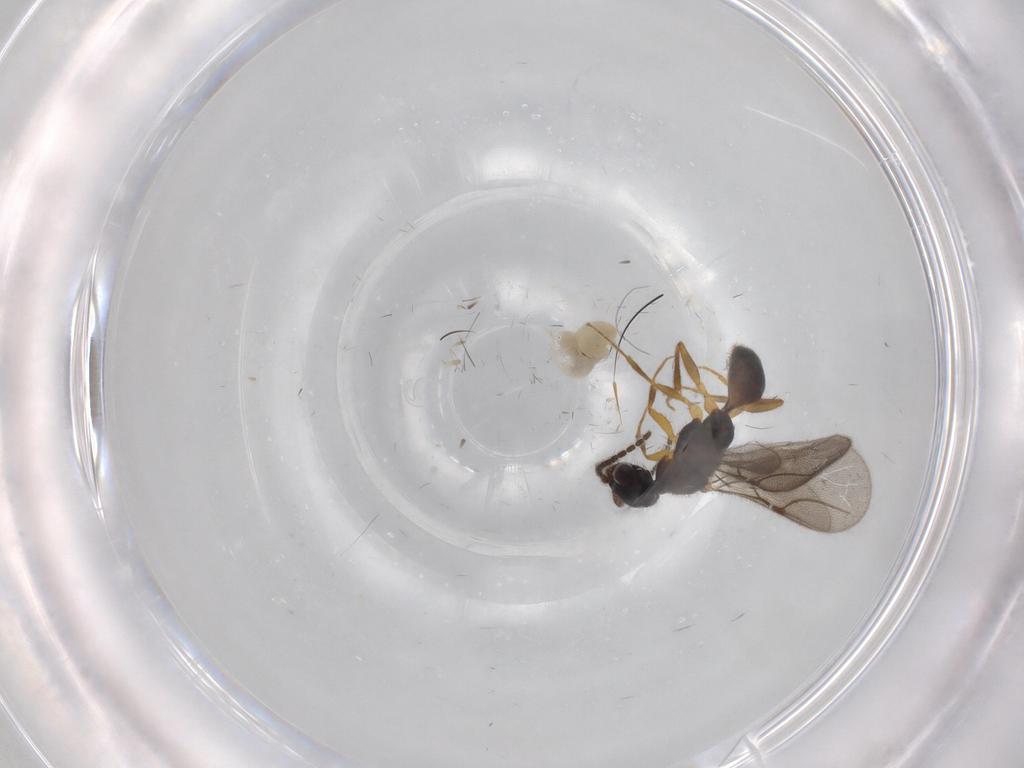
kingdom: Animalia
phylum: Arthropoda
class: Insecta
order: Hymenoptera
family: Bethylidae
